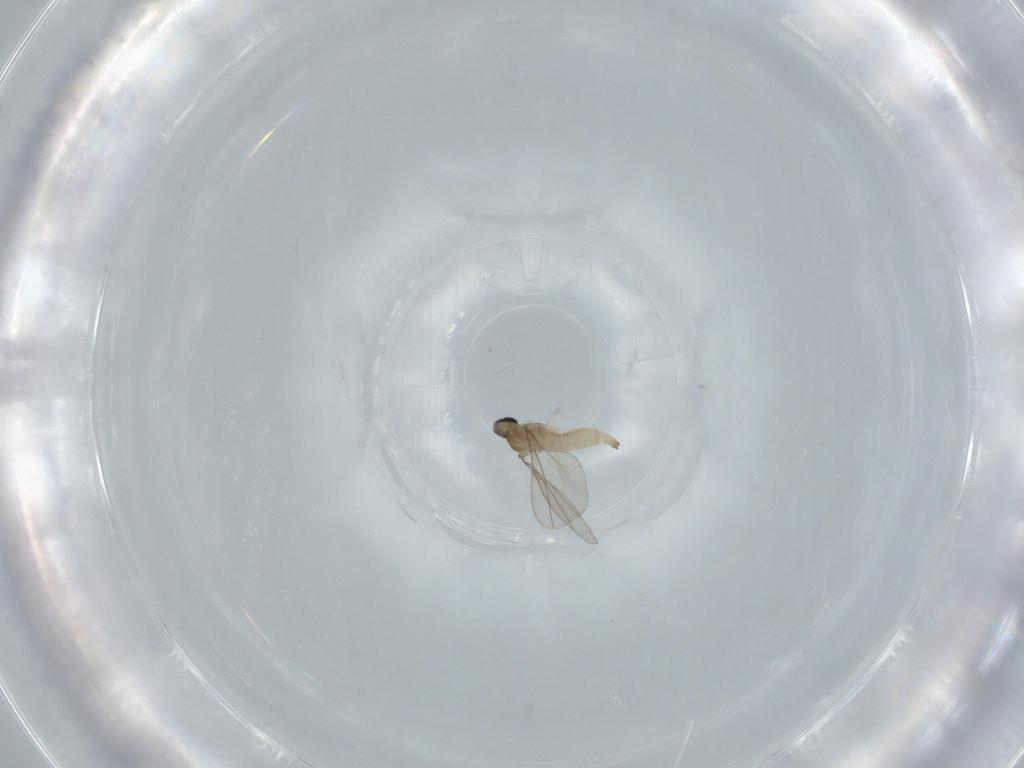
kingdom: Animalia
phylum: Arthropoda
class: Insecta
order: Diptera
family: Cecidomyiidae
